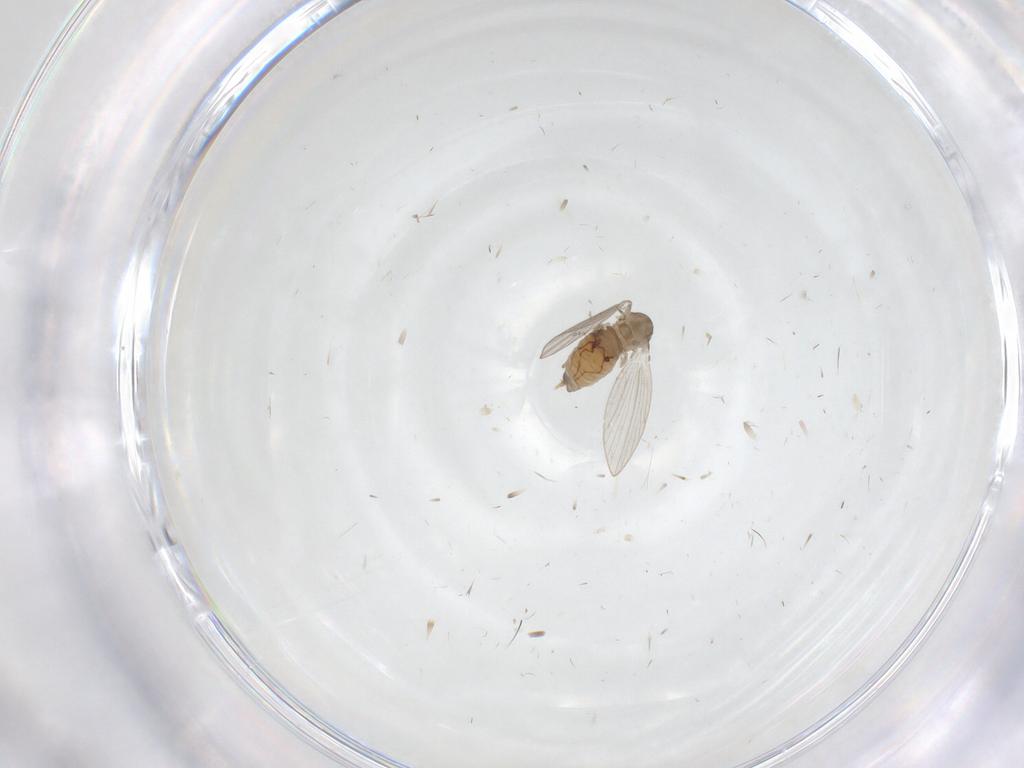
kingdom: Animalia
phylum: Arthropoda
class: Insecta
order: Diptera
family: Psychodidae
